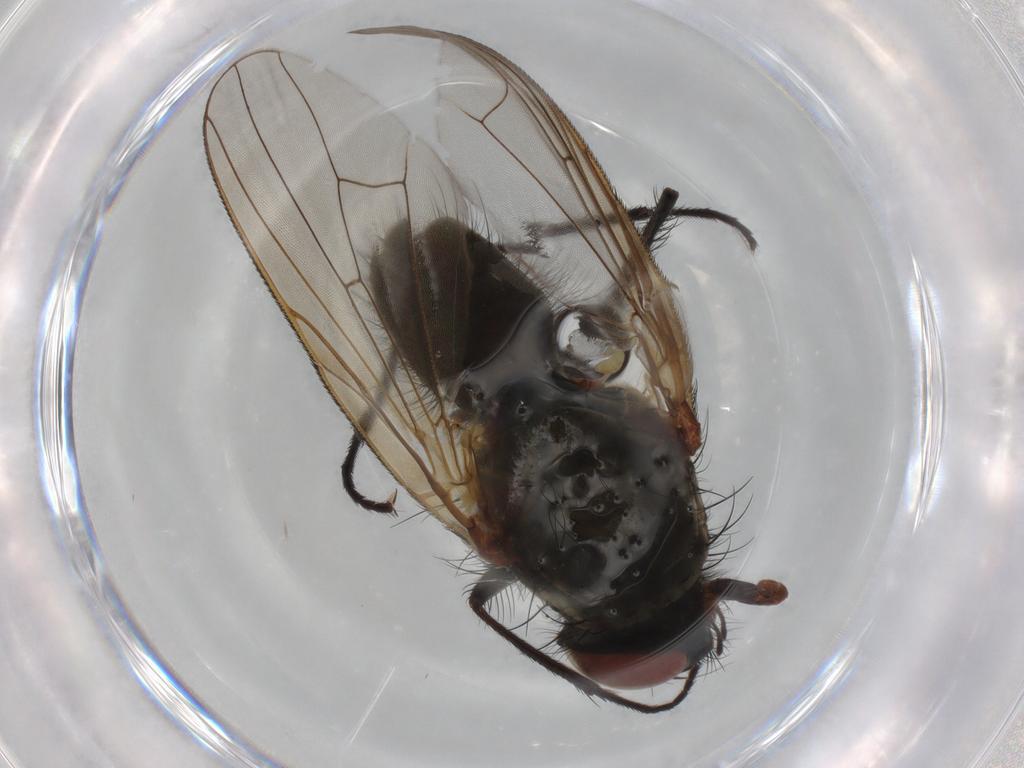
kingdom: Animalia
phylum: Arthropoda
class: Insecta
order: Diptera
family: Anthomyiidae
